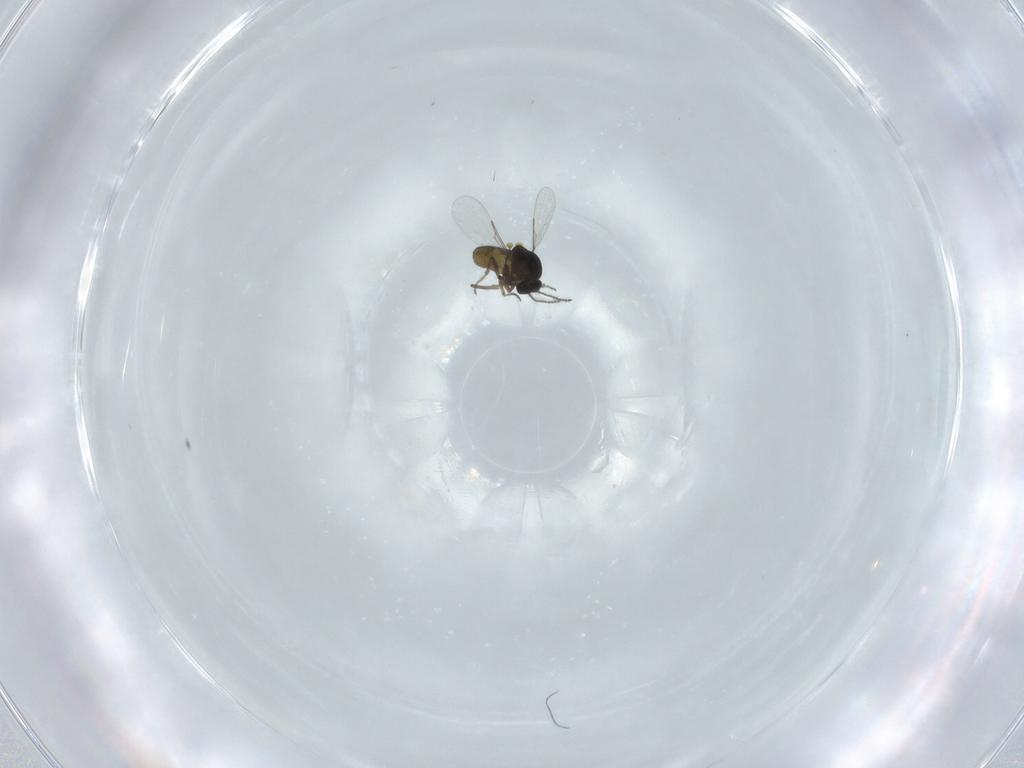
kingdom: Animalia
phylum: Arthropoda
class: Insecta
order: Diptera
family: Ceratopogonidae
